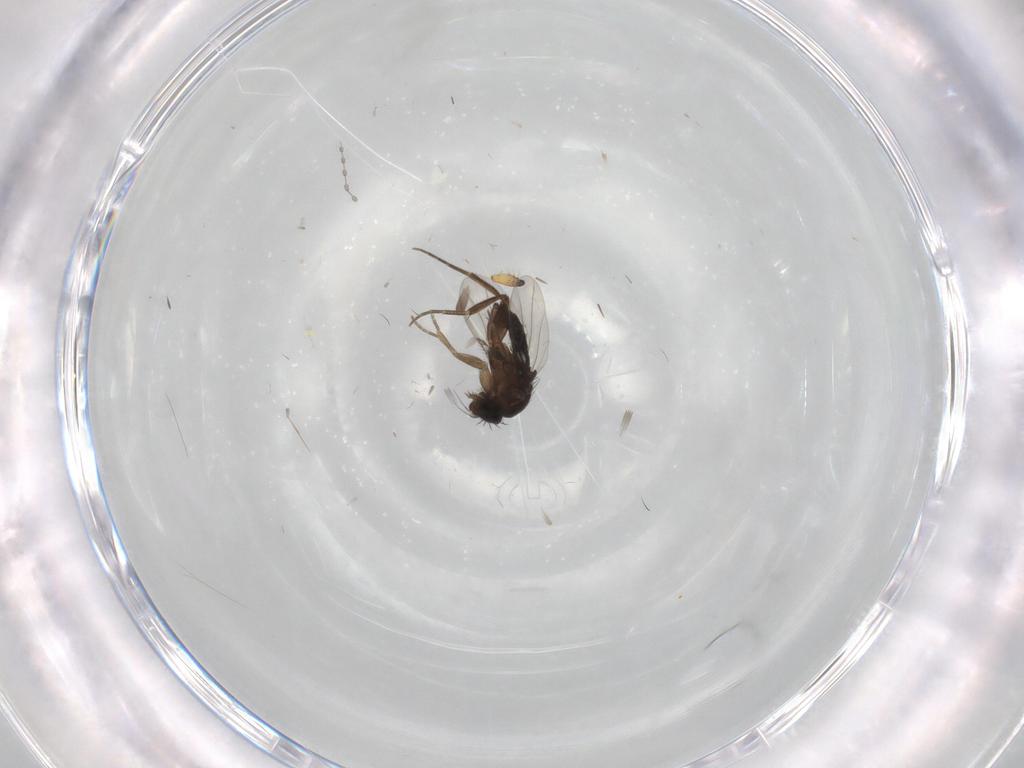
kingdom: Animalia
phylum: Arthropoda
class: Insecta
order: Diptera
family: Phoridae
